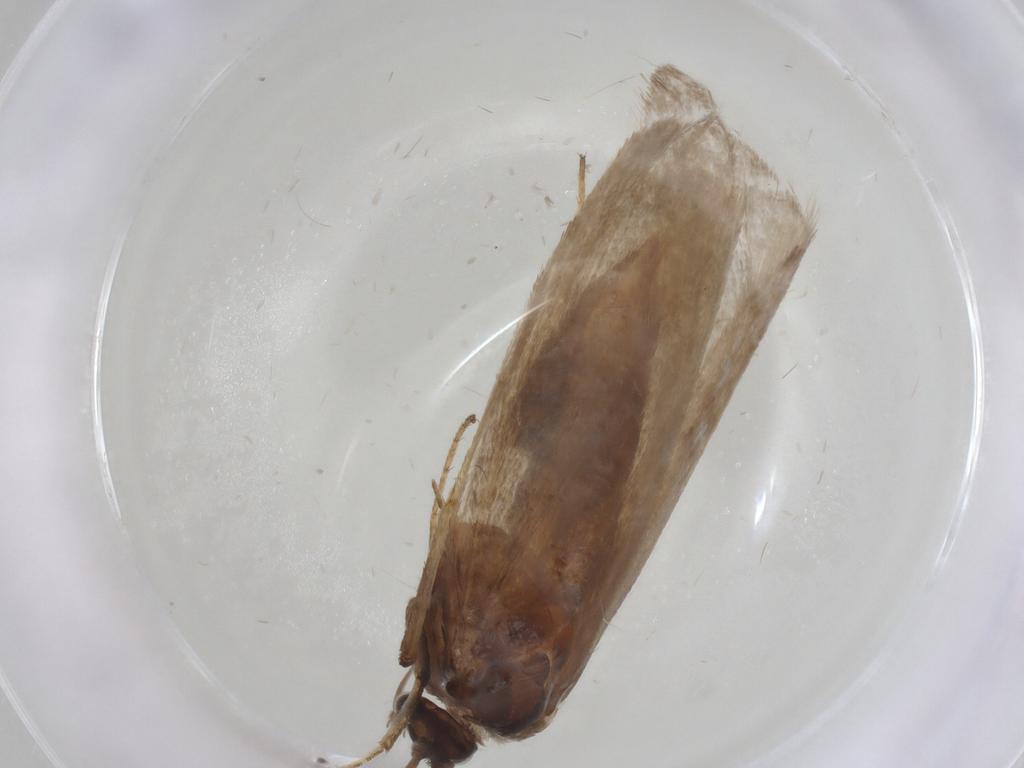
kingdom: Animalia
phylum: Arthropoda
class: Insecta
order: Lepidoptera
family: Adelidae
